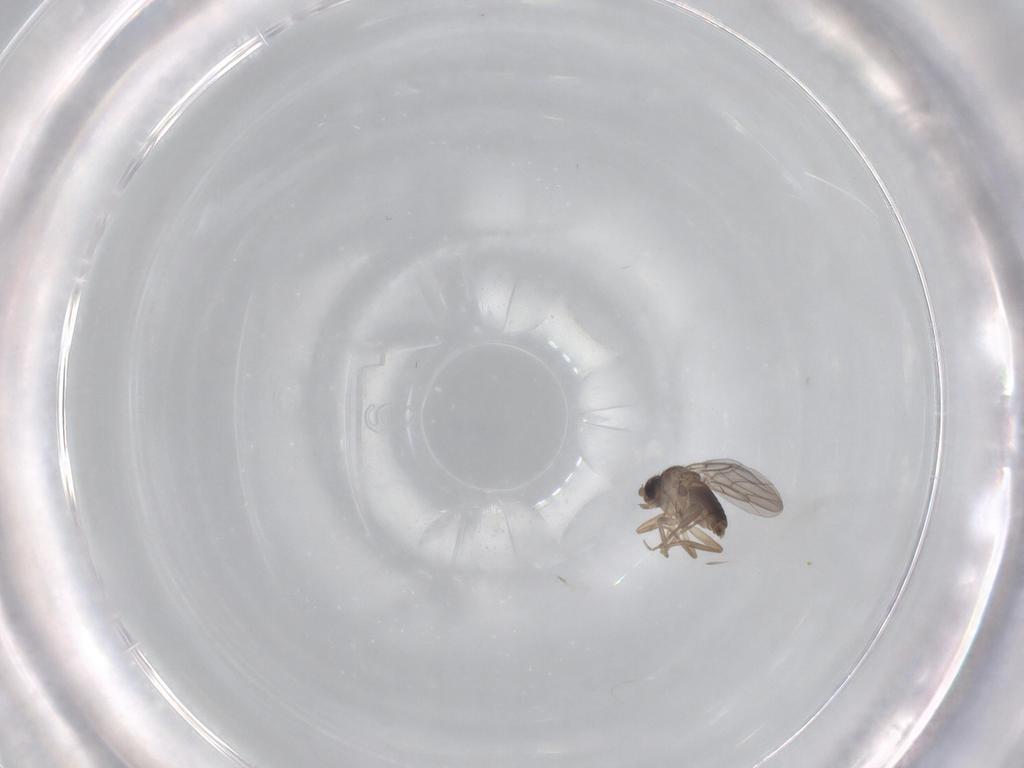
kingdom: Animalia
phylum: Arthropoda
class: Insecta
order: Diptera
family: Phoridae
